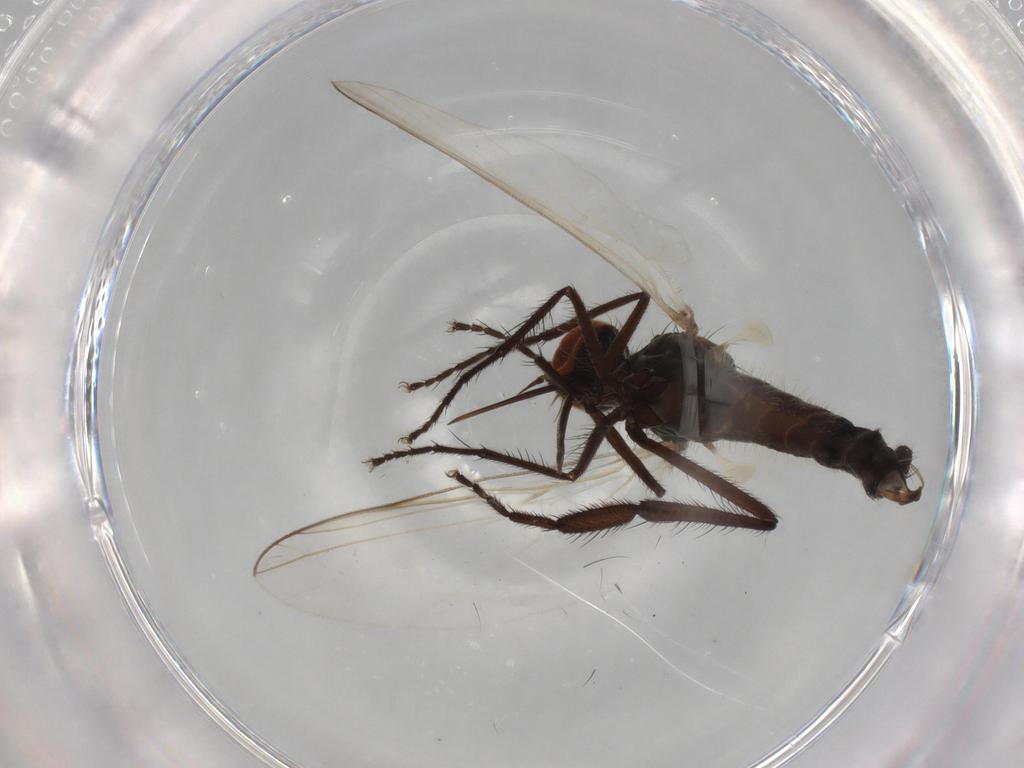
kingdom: Animalia
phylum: Arthropoda
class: Insecta
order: Diptera
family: Empididae
